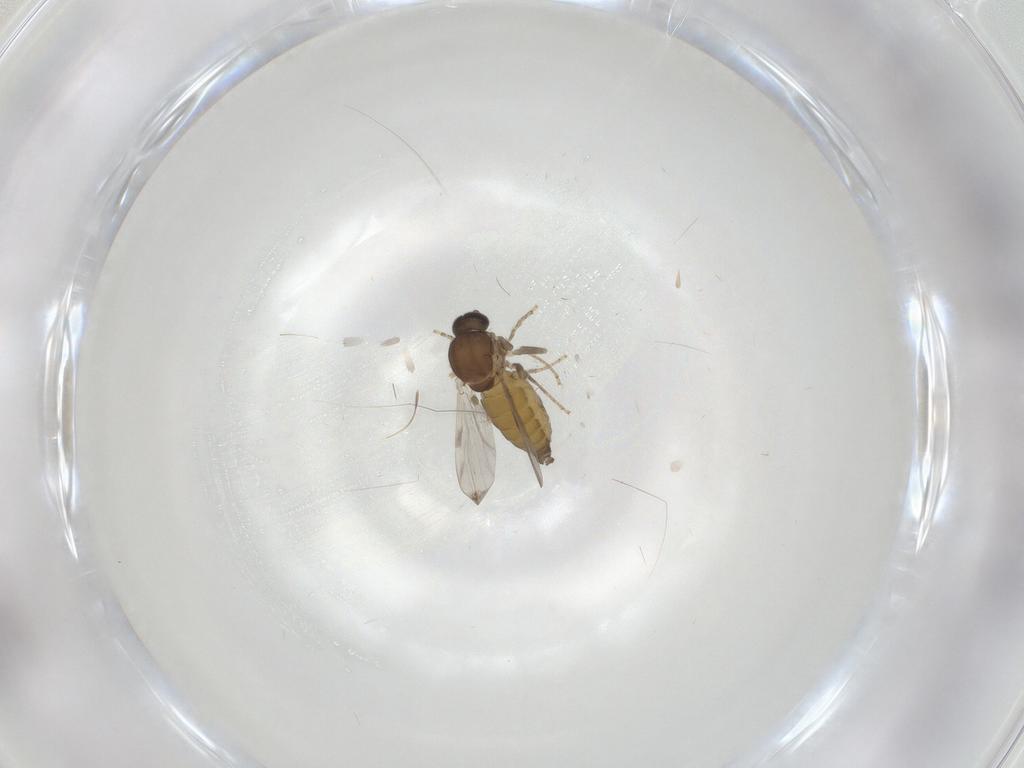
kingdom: Animalia
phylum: Arthropoda
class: Insecta
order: Diptera
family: Ceratopogonidae
